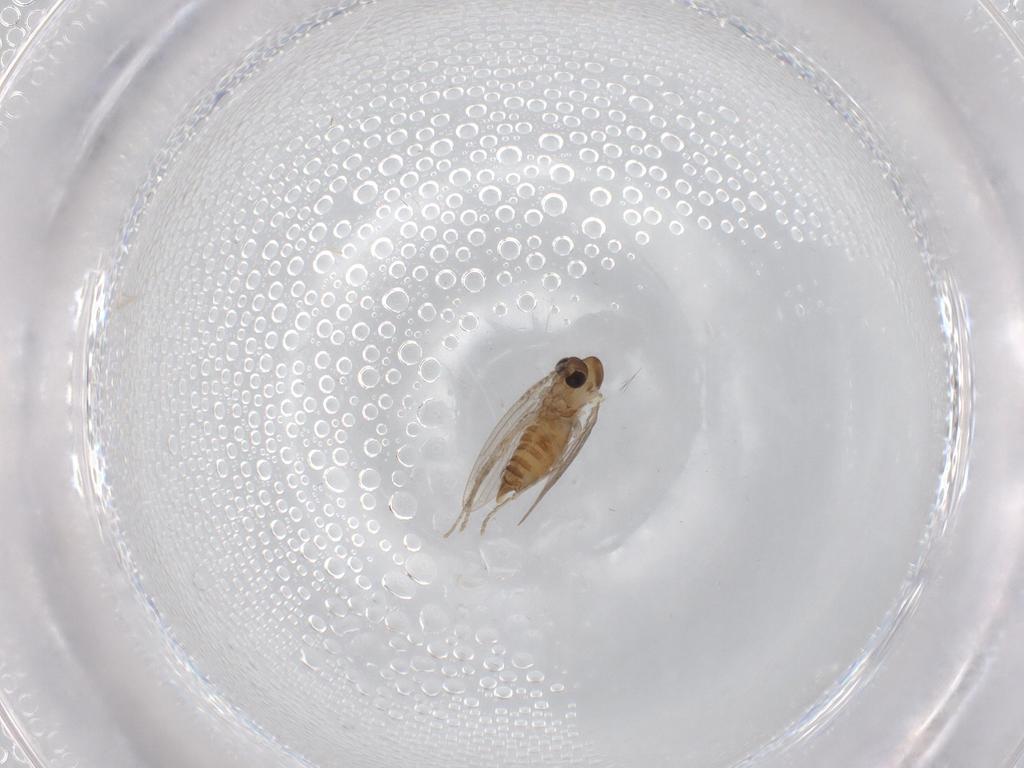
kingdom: Animalia
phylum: Arthropoda
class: Insecta
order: Diptera
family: Psychodidae
